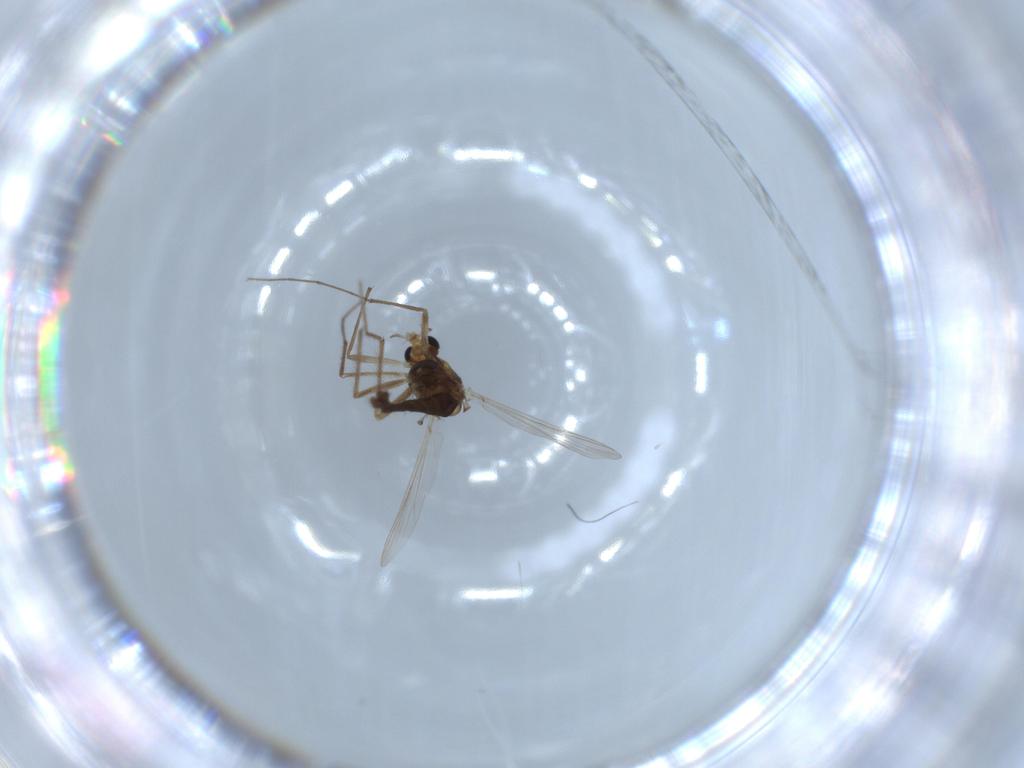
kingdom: Animalia
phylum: Arthropoda
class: Insecta
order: Diptera
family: Chironomidae
